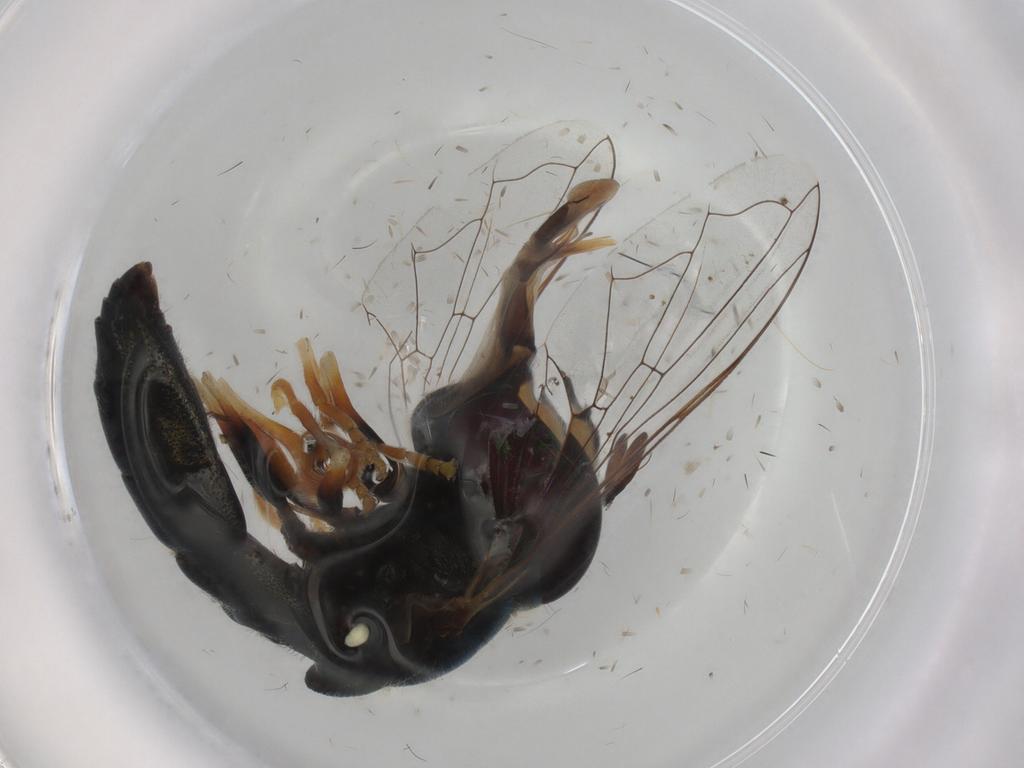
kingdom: Animalia
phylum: Arthropoda
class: Insecta
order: Diptera
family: Syrphidae
